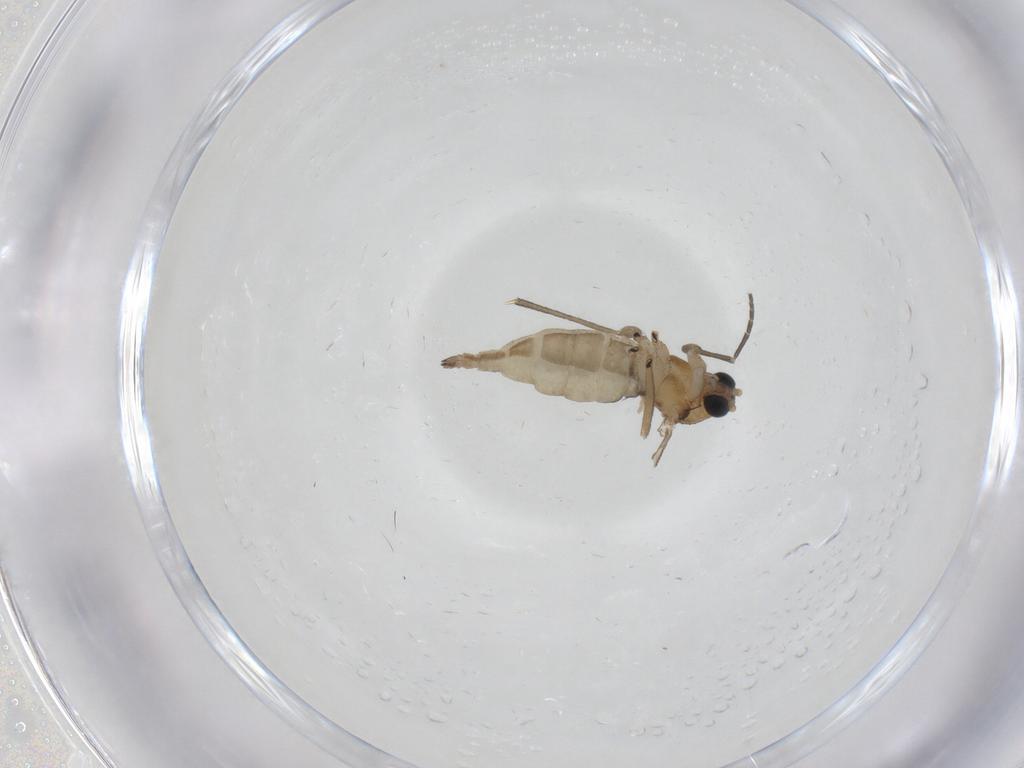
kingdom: Animalia
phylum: Arthropoda
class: Insecta
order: Diptera
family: Sciaridae
